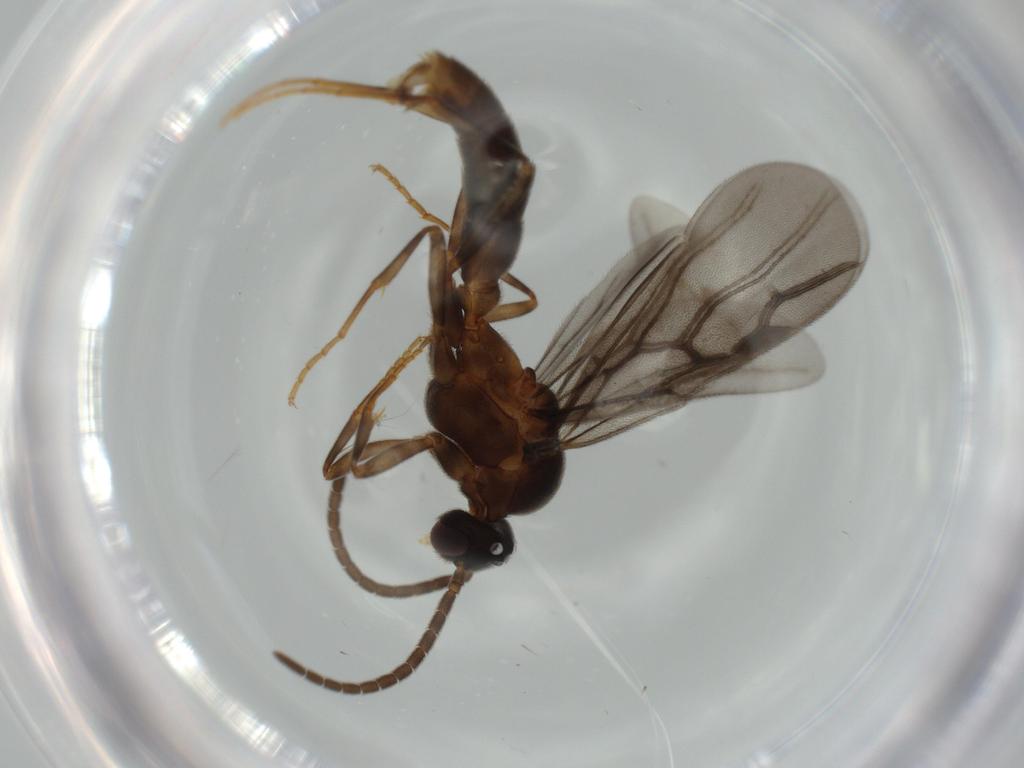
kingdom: Animalia
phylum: Arthropoda
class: Insecta
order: Hymenoptera
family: Formicidae
